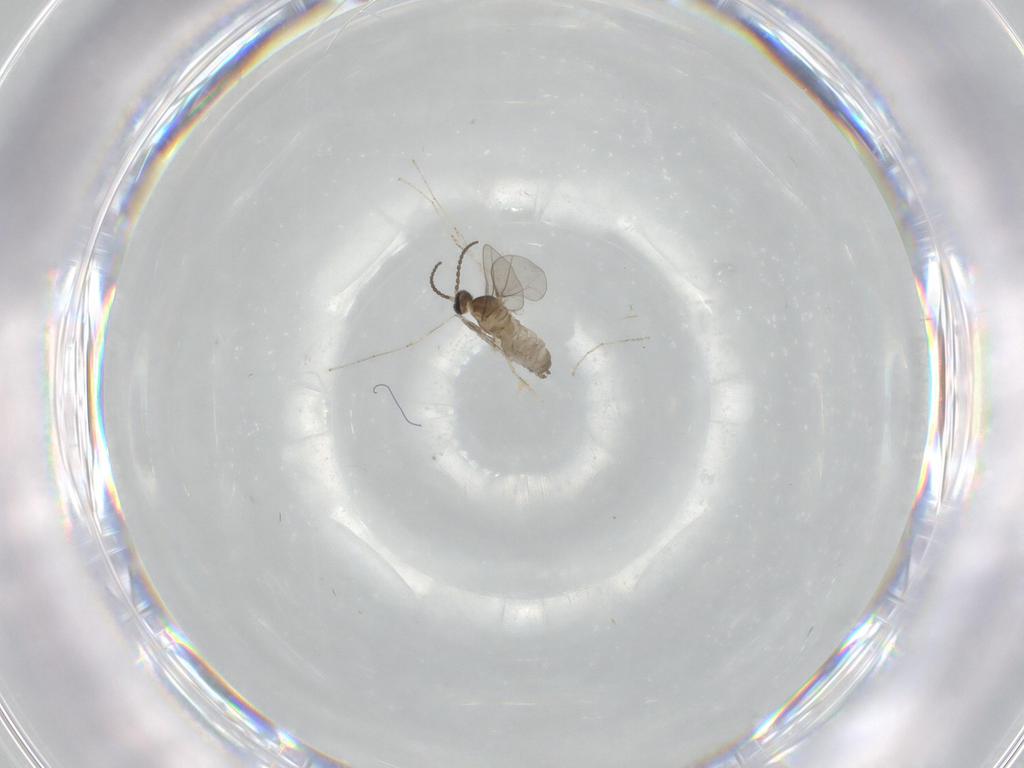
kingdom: Animalia
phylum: Arthropoda
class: Insecta
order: Diptera
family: Cecidomyiidae
